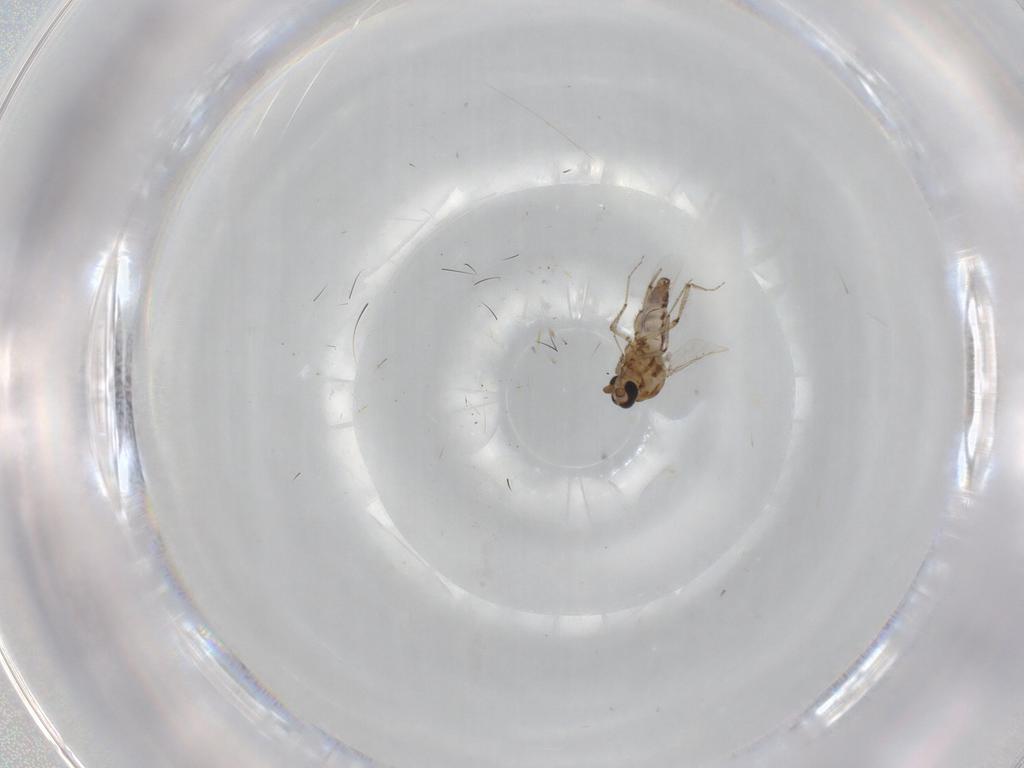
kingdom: Animalia
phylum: Arthropoda
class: Insecta
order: Diptera
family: Ceratopogonidae
